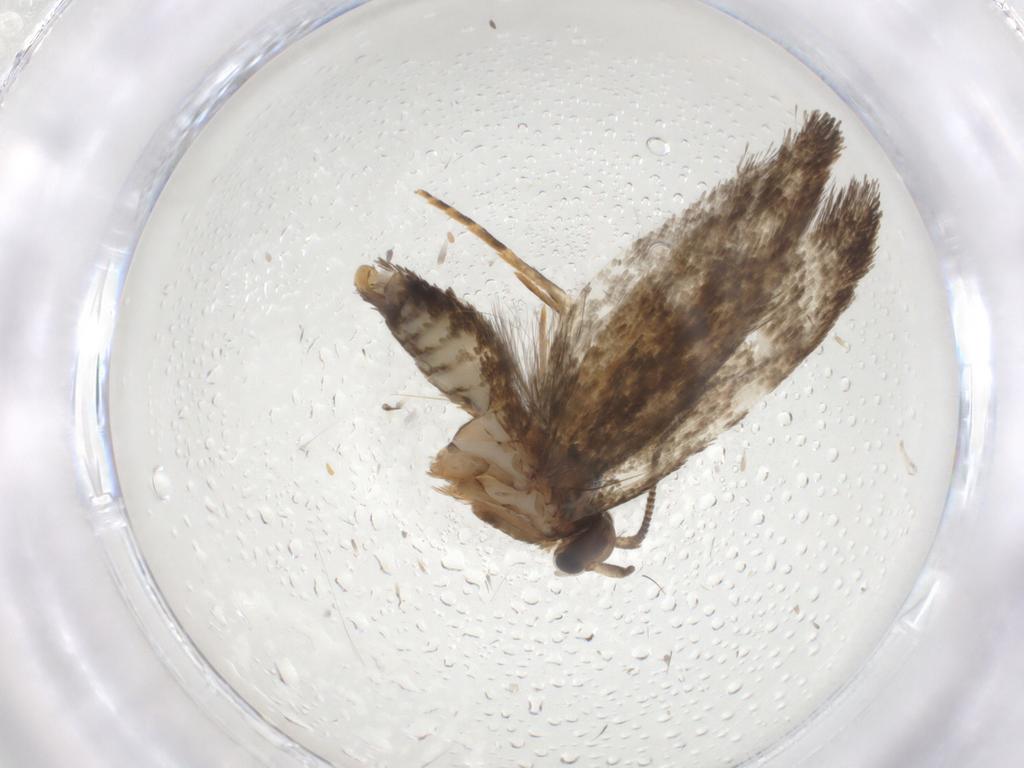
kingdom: Animalia
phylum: Arthropoda
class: Insecta
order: Lepidoptera
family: Crambidae
